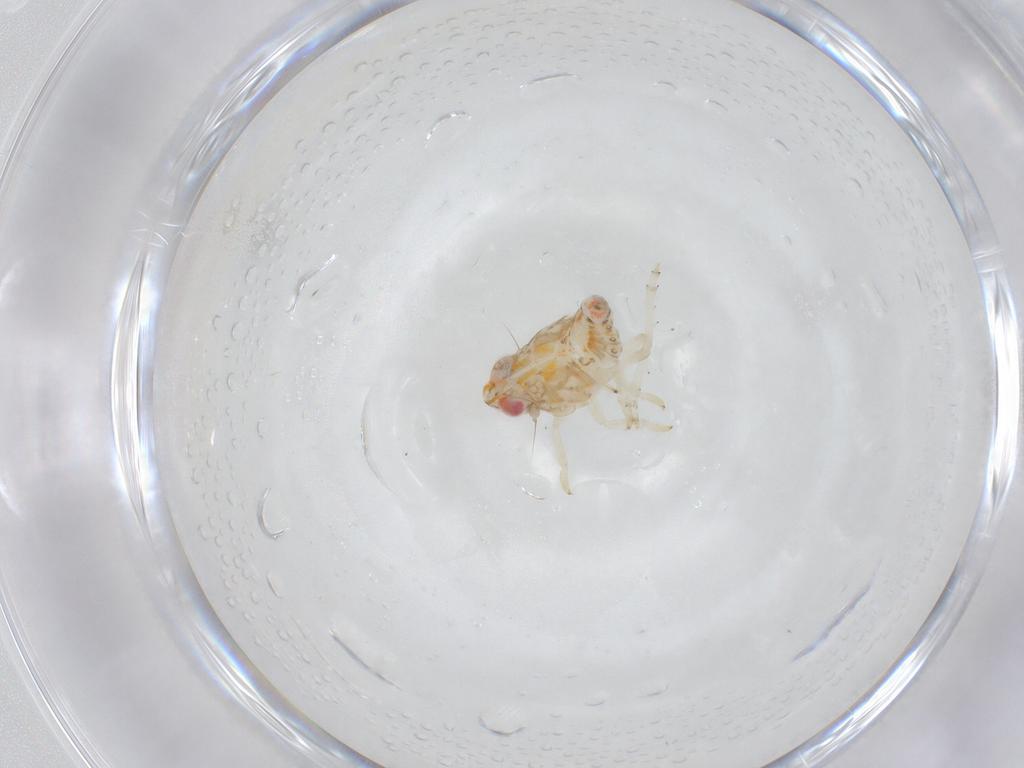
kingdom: Animalia
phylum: Arthropoda
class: Insecta
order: Hemiptera
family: Nogodinidae
